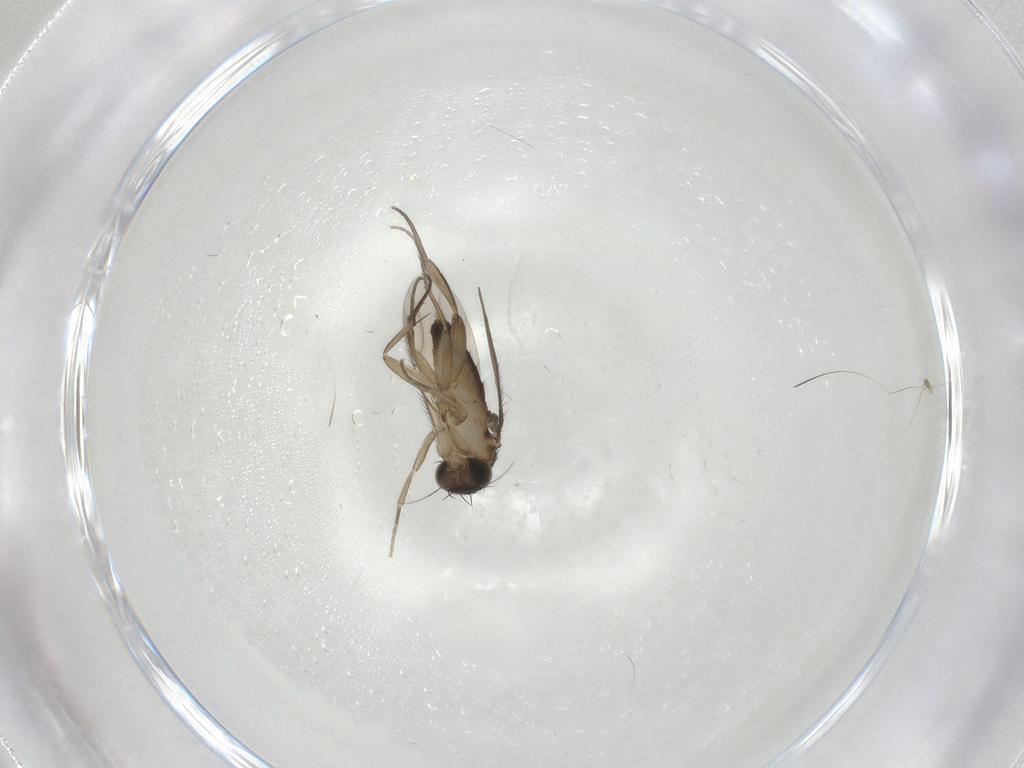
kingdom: Animalia
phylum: Arthropoda
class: Insecta
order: Diptera
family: Phoridae
